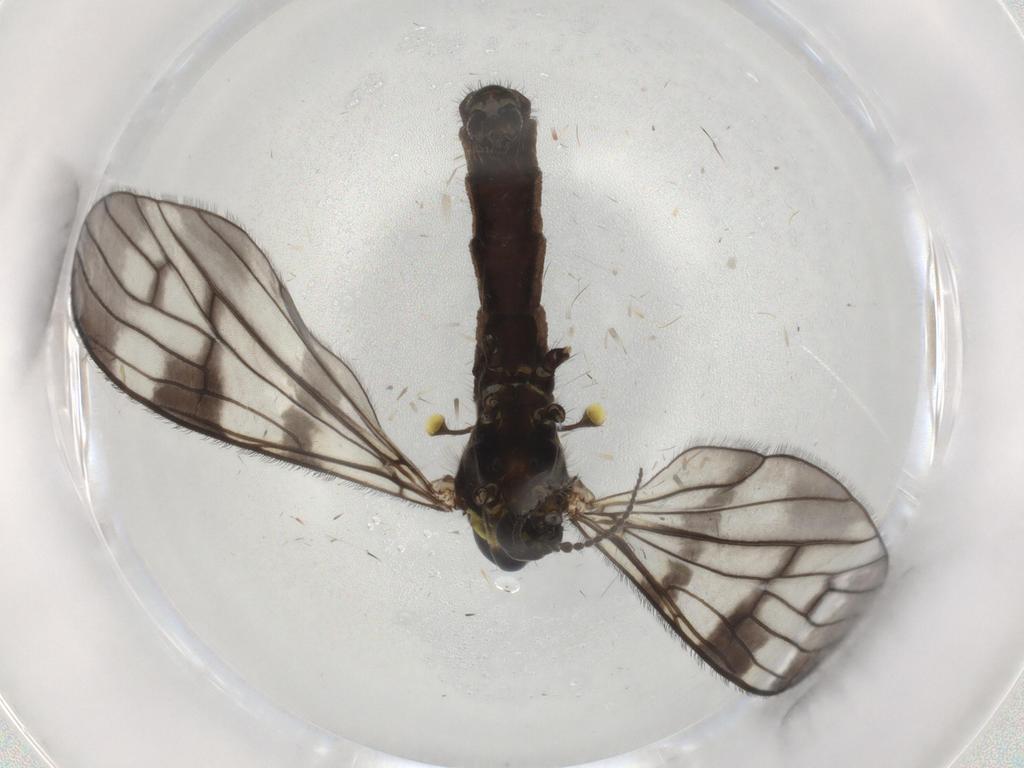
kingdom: Animalia
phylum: Arthropoda
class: Insecta
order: Diptera
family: Limoniidae
